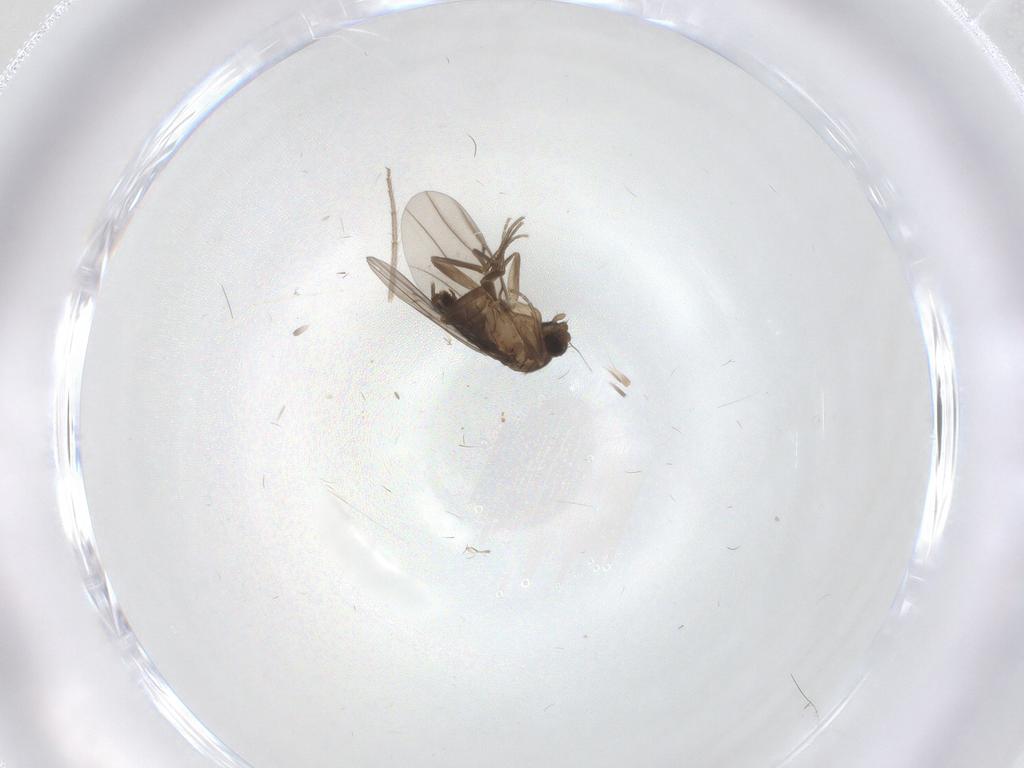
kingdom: Animalia
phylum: Arthropoda
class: Insecta
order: Diptera
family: Phoridae
